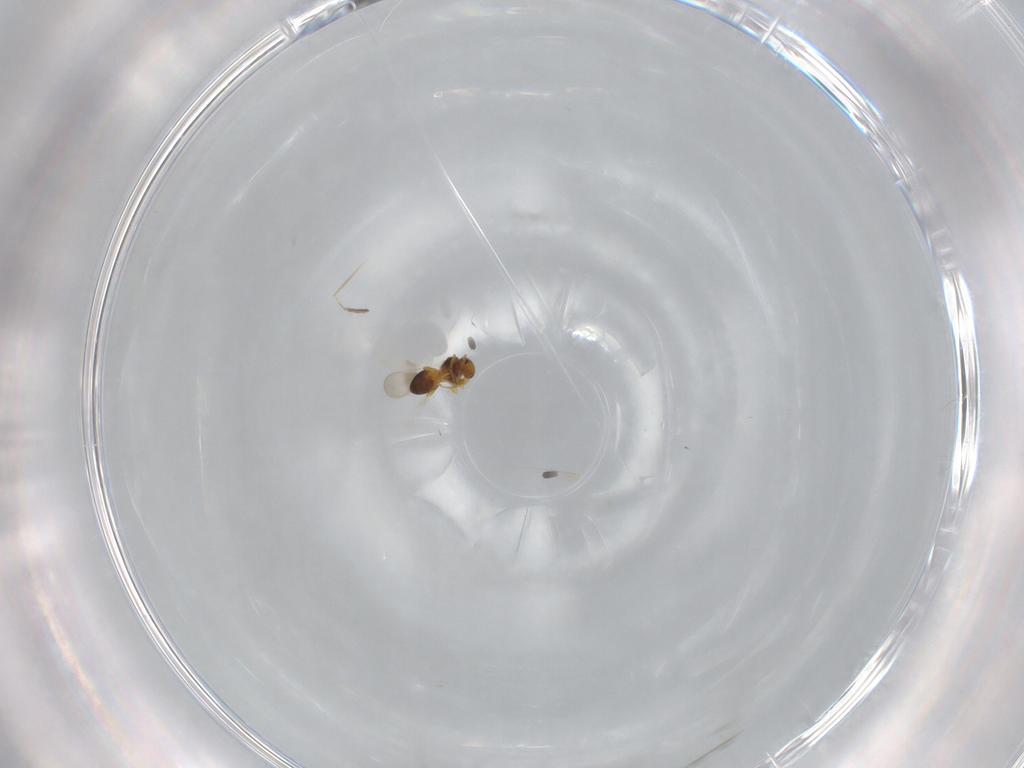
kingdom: Animalia
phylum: Arthropoda
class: Insecta
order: Hymenoptera
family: Platygastridae
